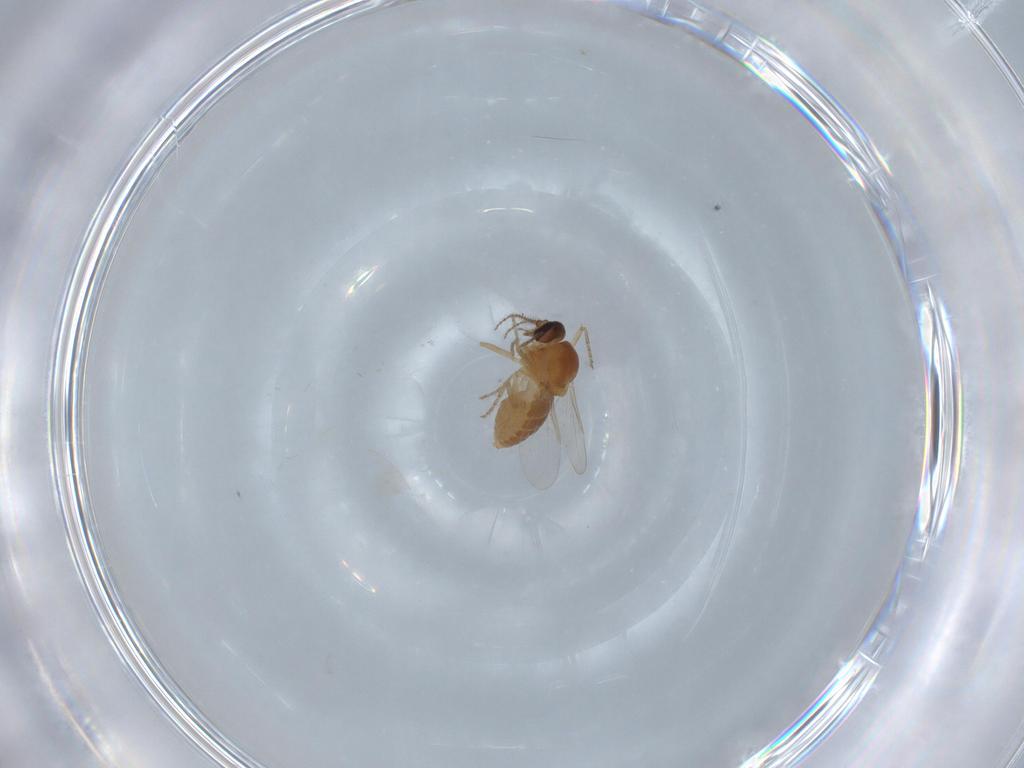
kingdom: Animalia
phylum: Arthropoda
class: Insecta
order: Diptera
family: Ceratopogonidae
